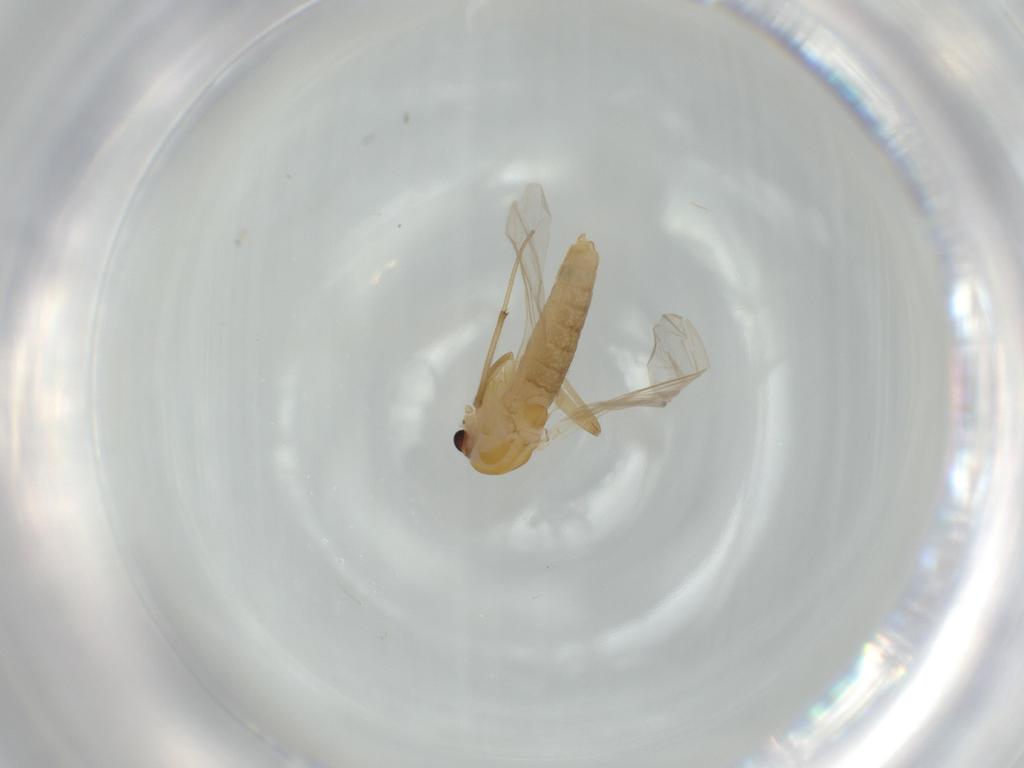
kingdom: Animalia
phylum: Arthropoda
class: Insecta
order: Diptera
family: Chironomidae
